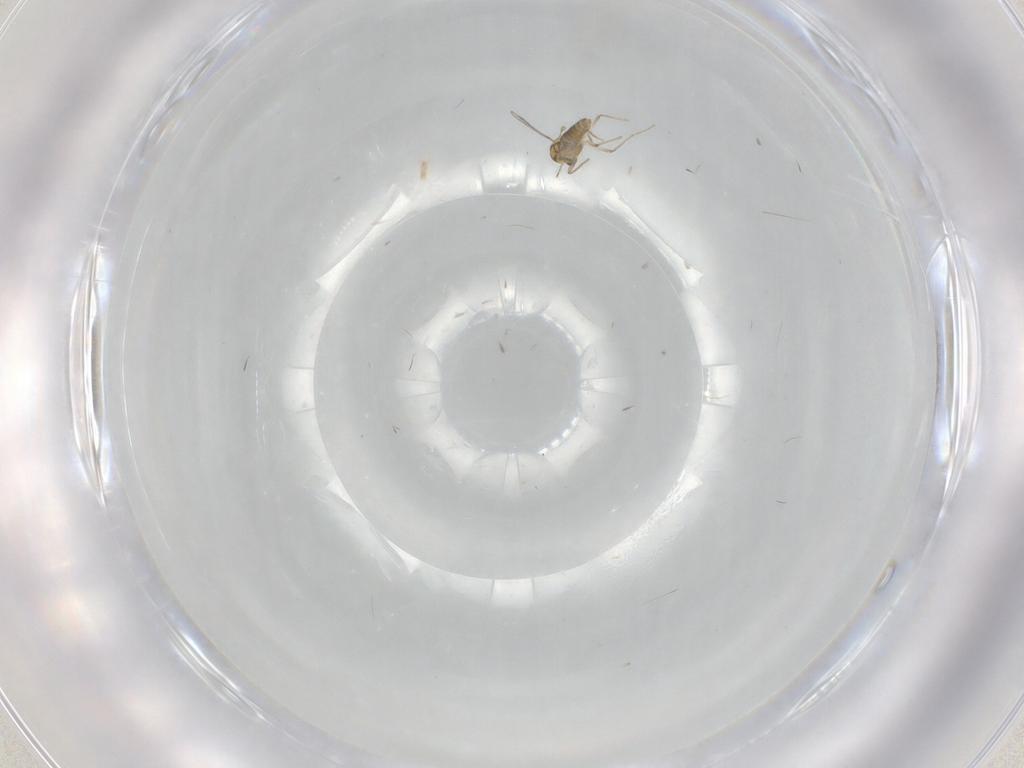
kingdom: Animalia
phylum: Arthropoda
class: Insecta
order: Diptera
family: Chironomidae
